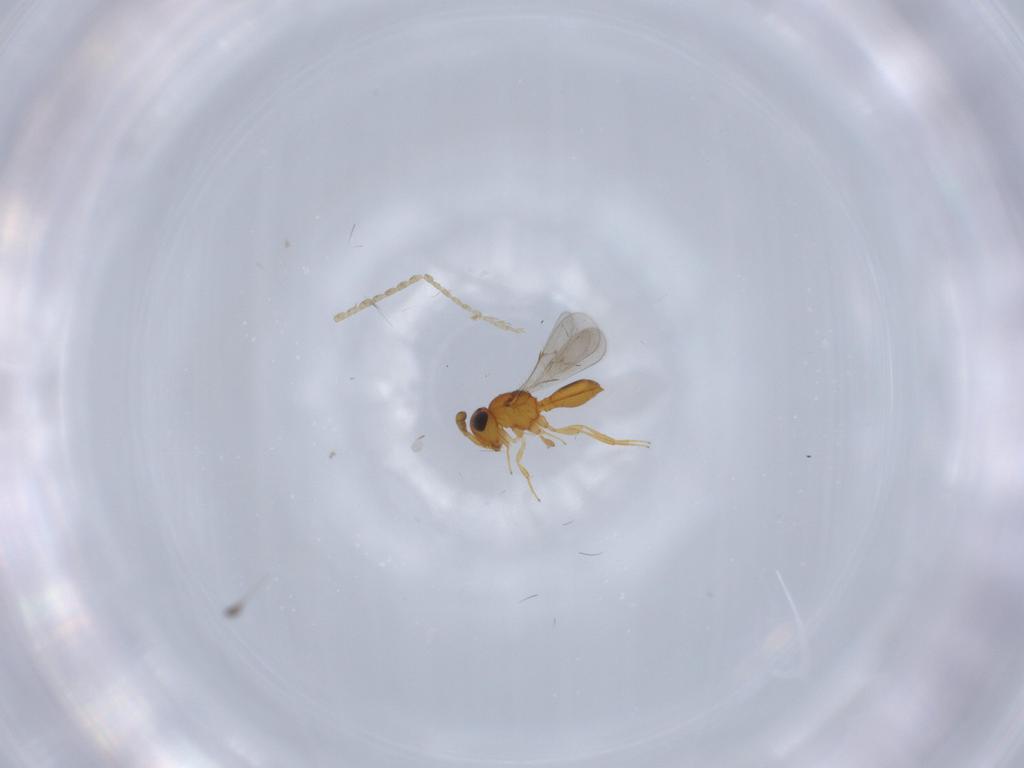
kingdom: Animalia
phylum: Arthropoda
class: Insecta
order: Hymenoptera
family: Scelionidae
